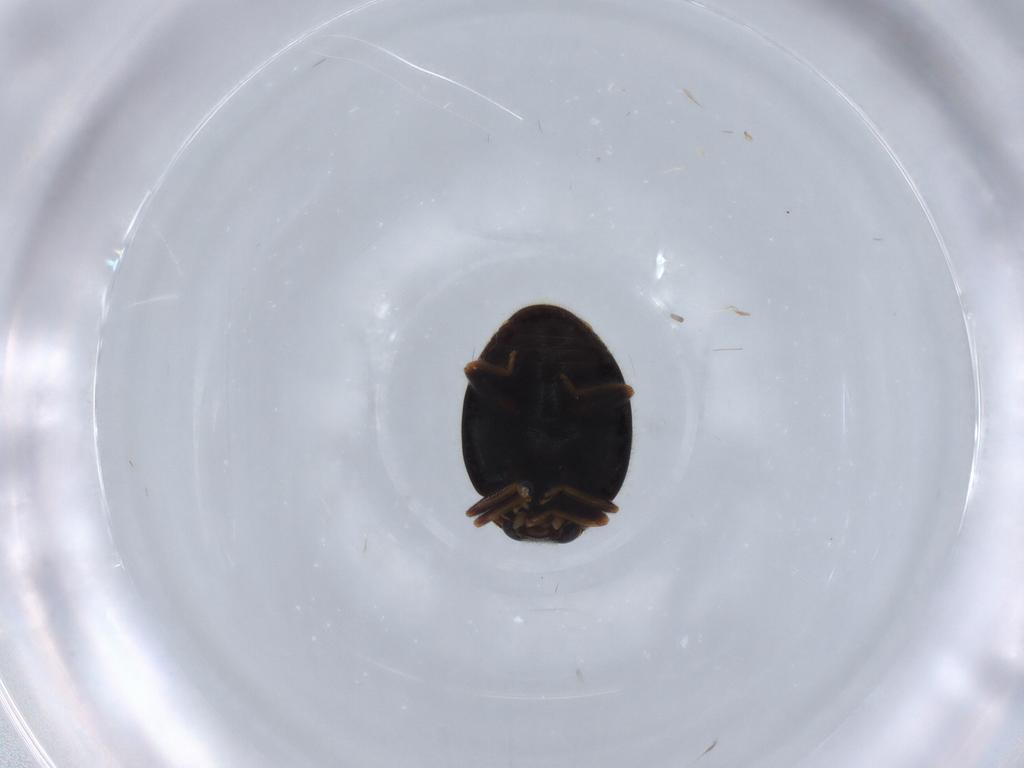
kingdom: Animalia
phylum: Arthropoda
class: Insecta
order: Coleoptera
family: Coccinellidae
